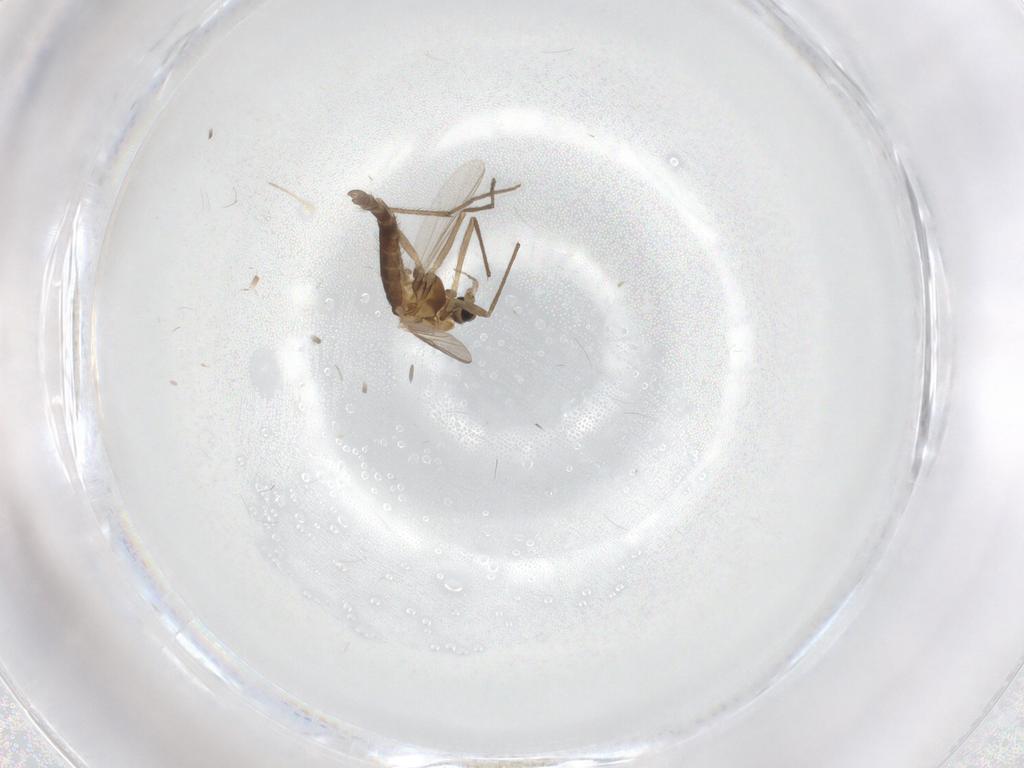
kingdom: Animalia
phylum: Arthropoda
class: Insecta
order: Diptera
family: Chironomidae
